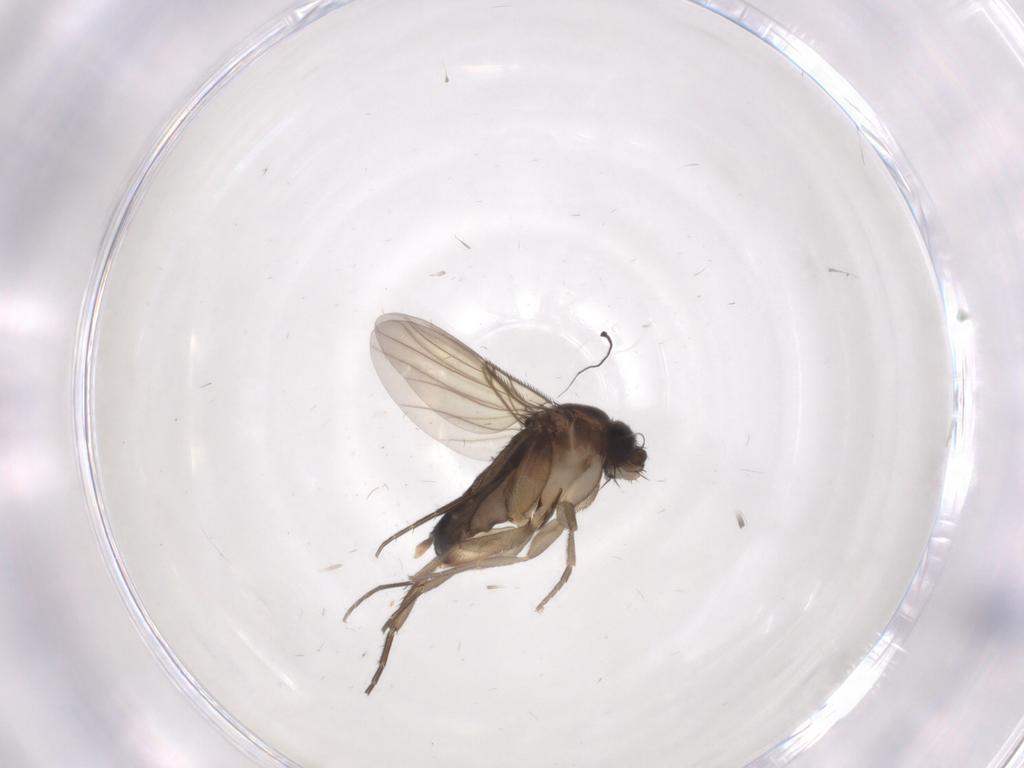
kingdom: Animalia
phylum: Arthropoda
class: Insecta
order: Diptera
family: Phoridae
